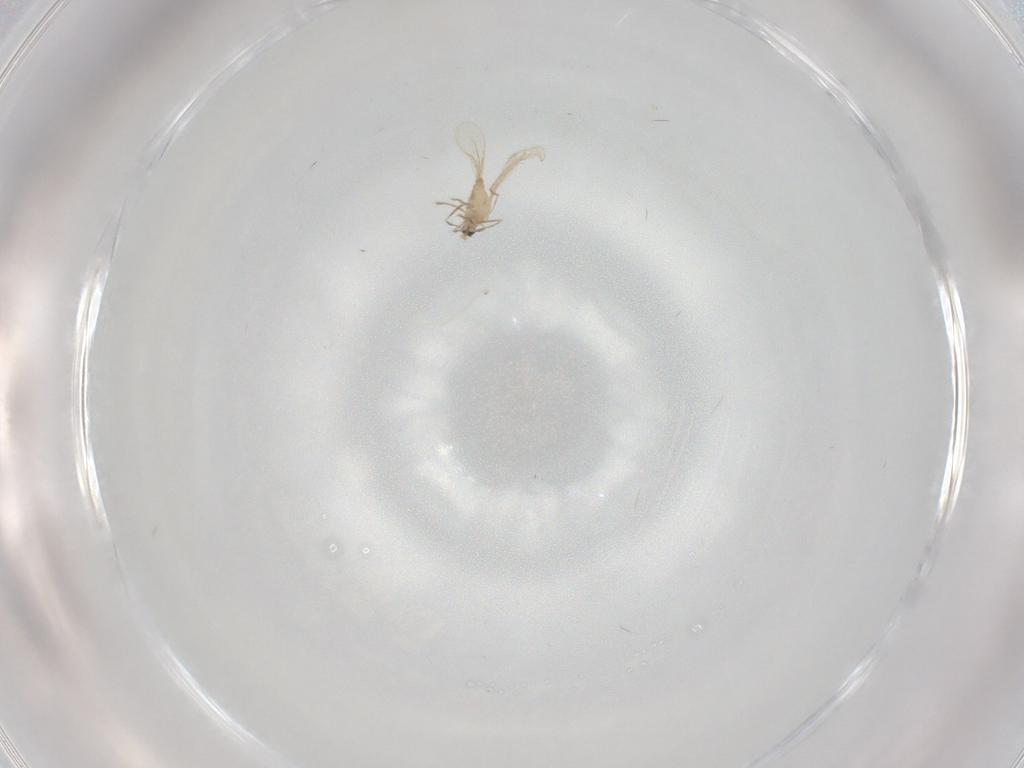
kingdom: Animalia
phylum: Arthropoda
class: Insecta
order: Diptera
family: Cecidomyiidae
